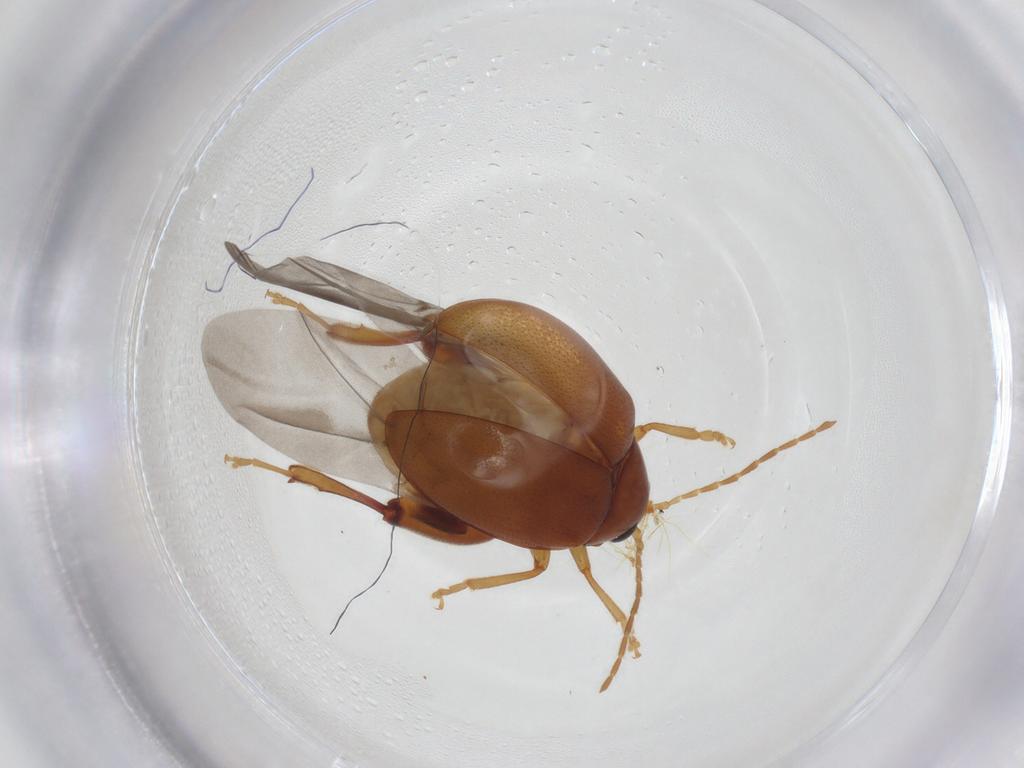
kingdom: Animalia
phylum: Arthropoda
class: Insecta
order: Coleoptera
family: Chrysomelidae
